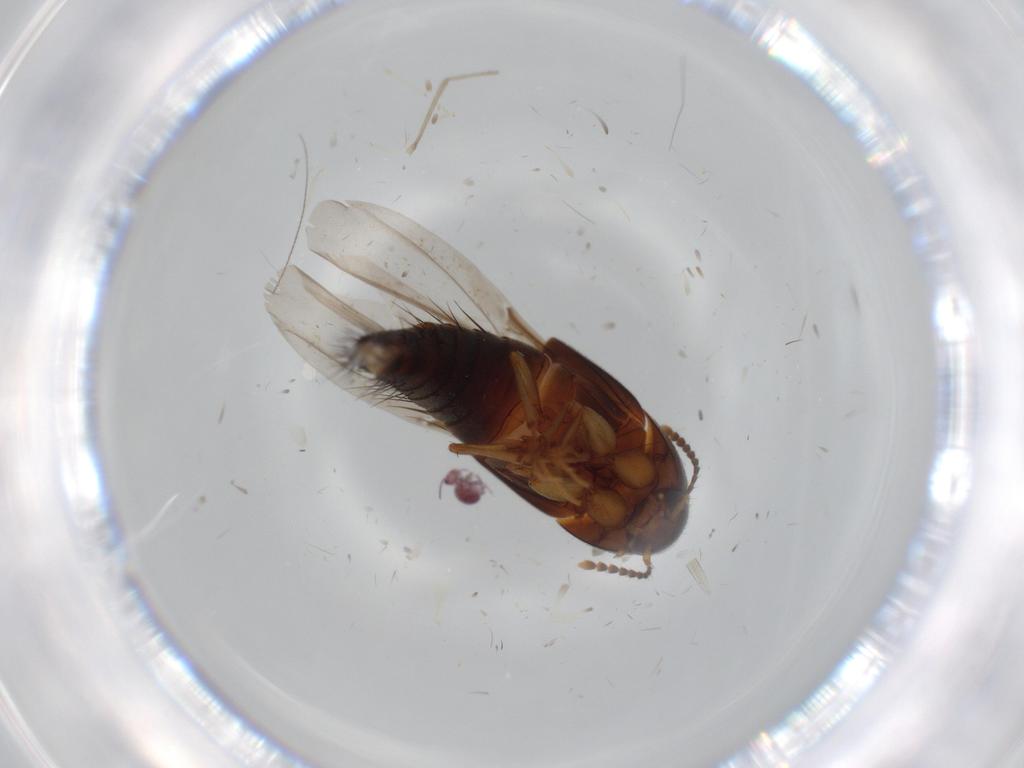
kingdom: Animalia
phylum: Arthropoda
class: Insecta
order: Coleoptera
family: Staphylinidae
